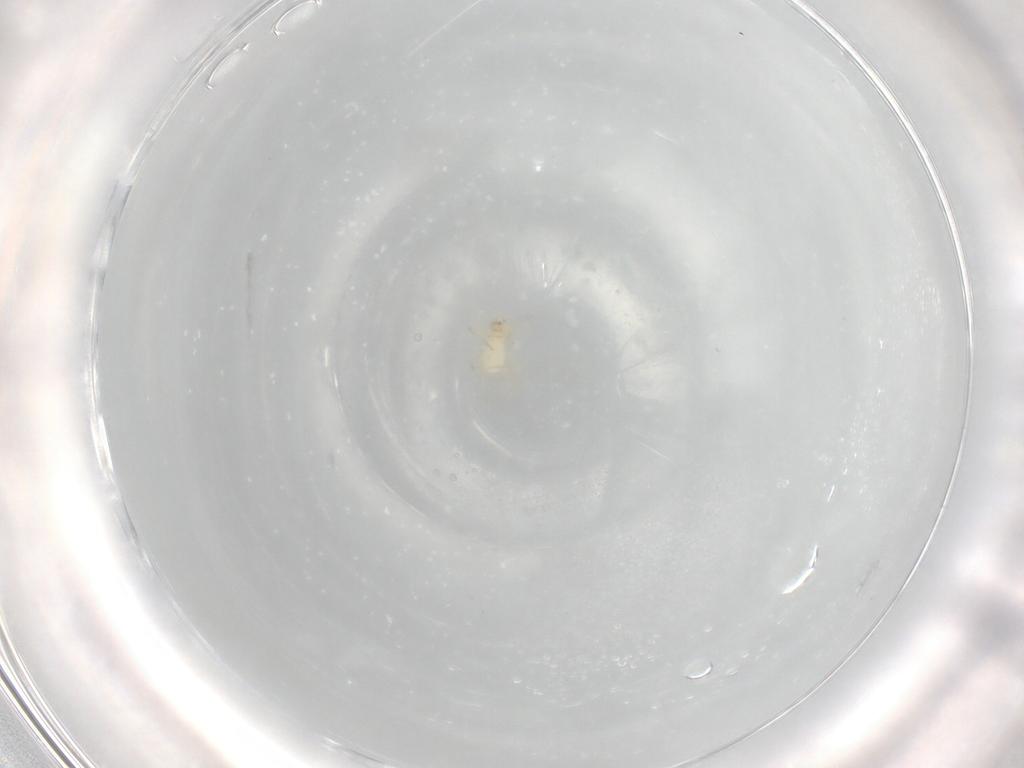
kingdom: Animalia
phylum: Arthropoda
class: Arachnida
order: Trombidiformes
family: Erythraeidae
